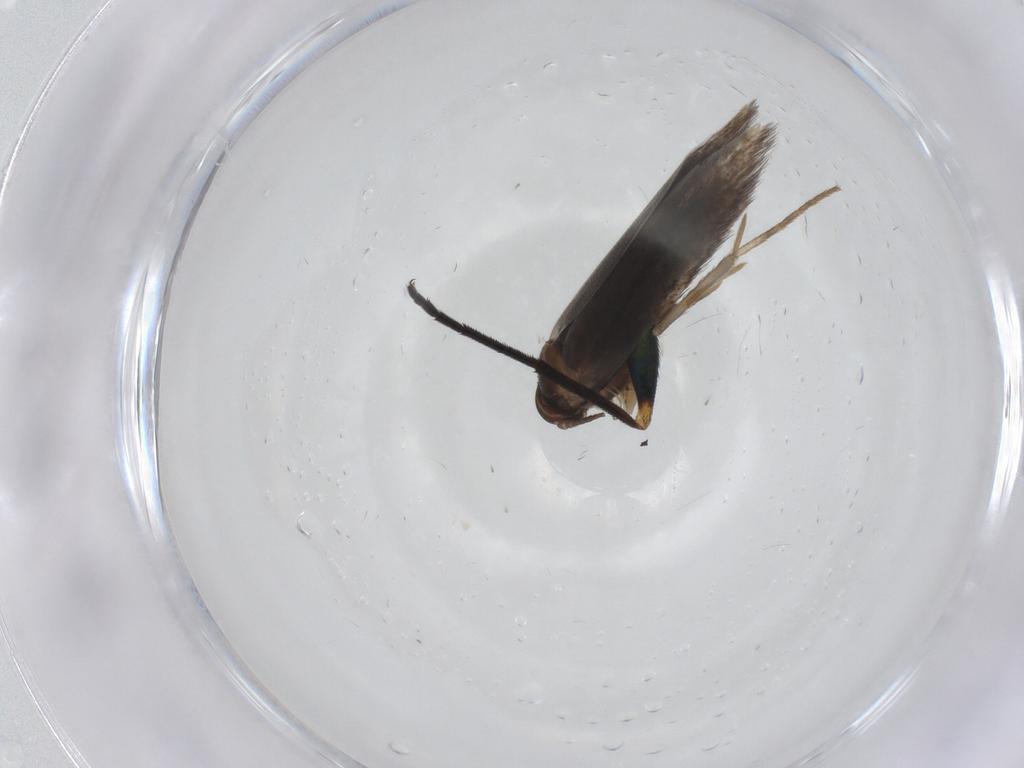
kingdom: Animalia
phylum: Arthropoda
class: Insecta
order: Lepidoptera
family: Elachistidae
